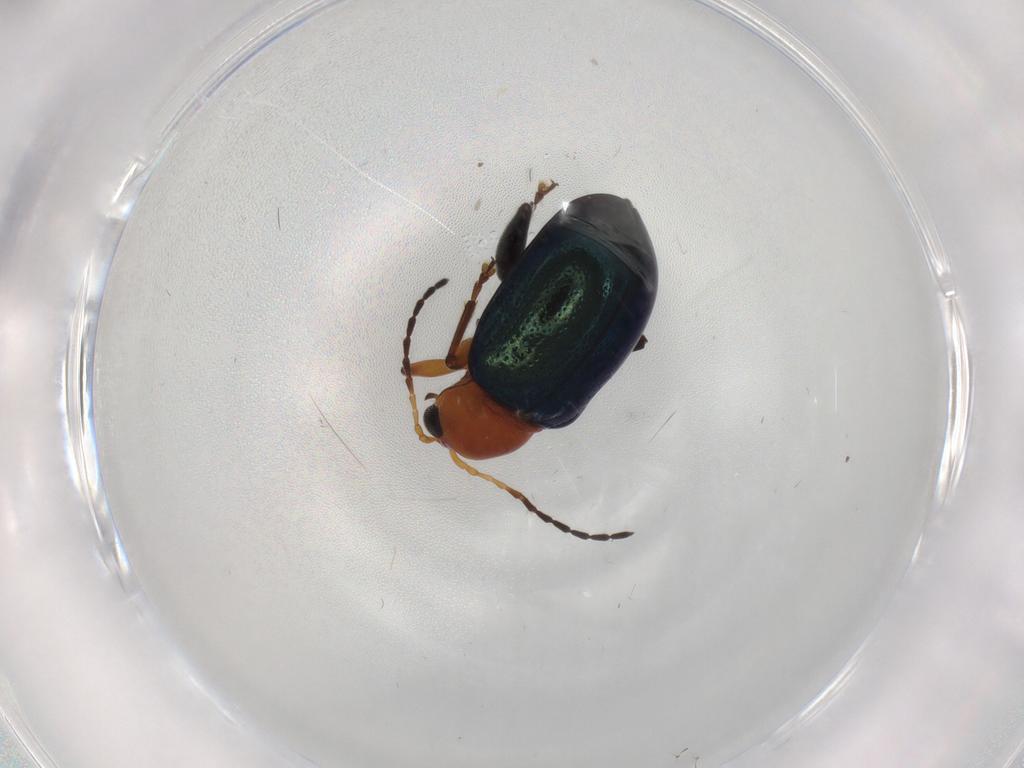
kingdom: Animalia
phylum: Arthropoda
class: Insecta
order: Coleoptera
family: Chrysomelidae
